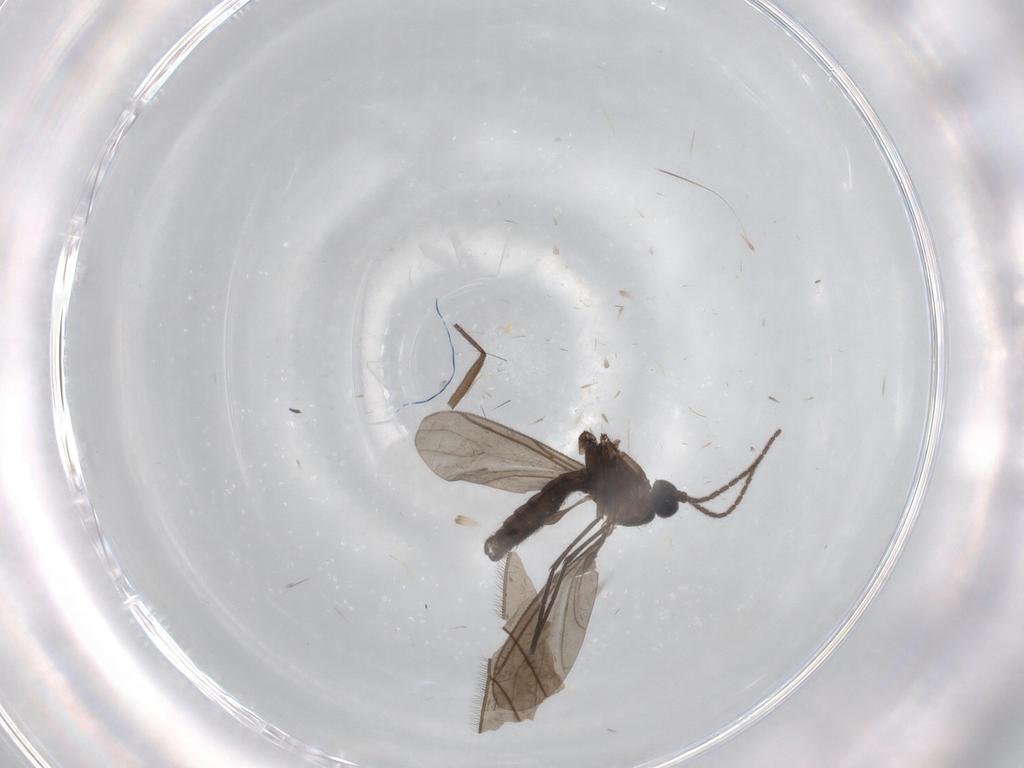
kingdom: Animalia
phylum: Arthropoda
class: Insecta
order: Diptera
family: Sciaridae
